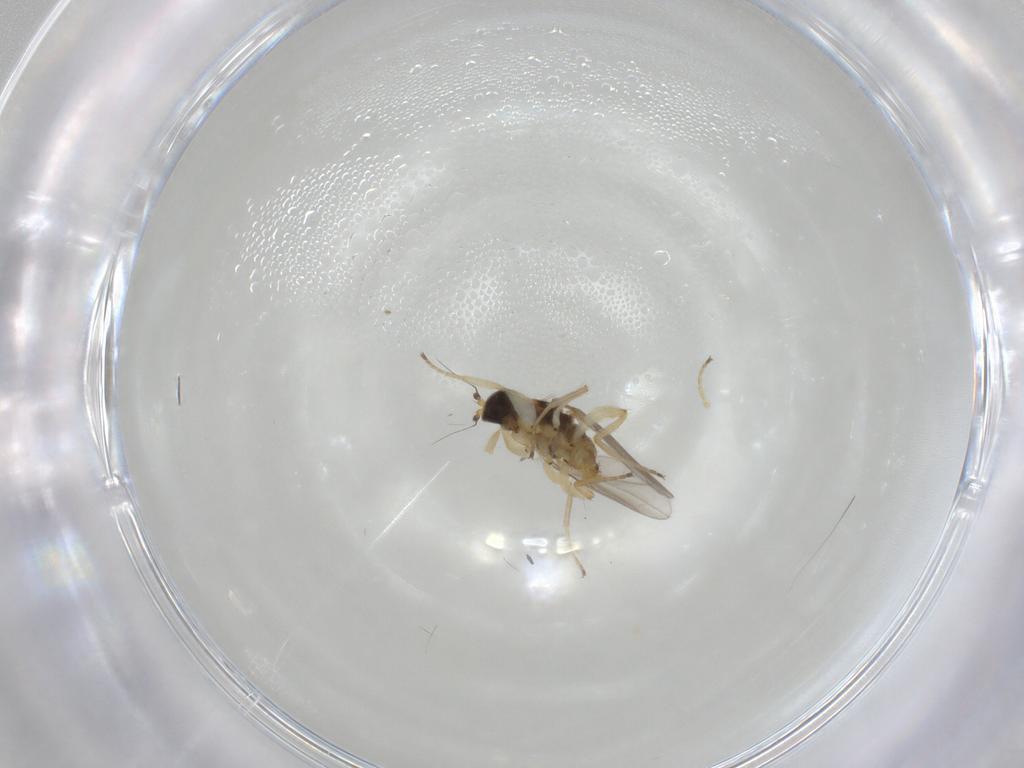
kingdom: Animalia
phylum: Arthropoda
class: Insecta
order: Diptera
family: Hybotidae
